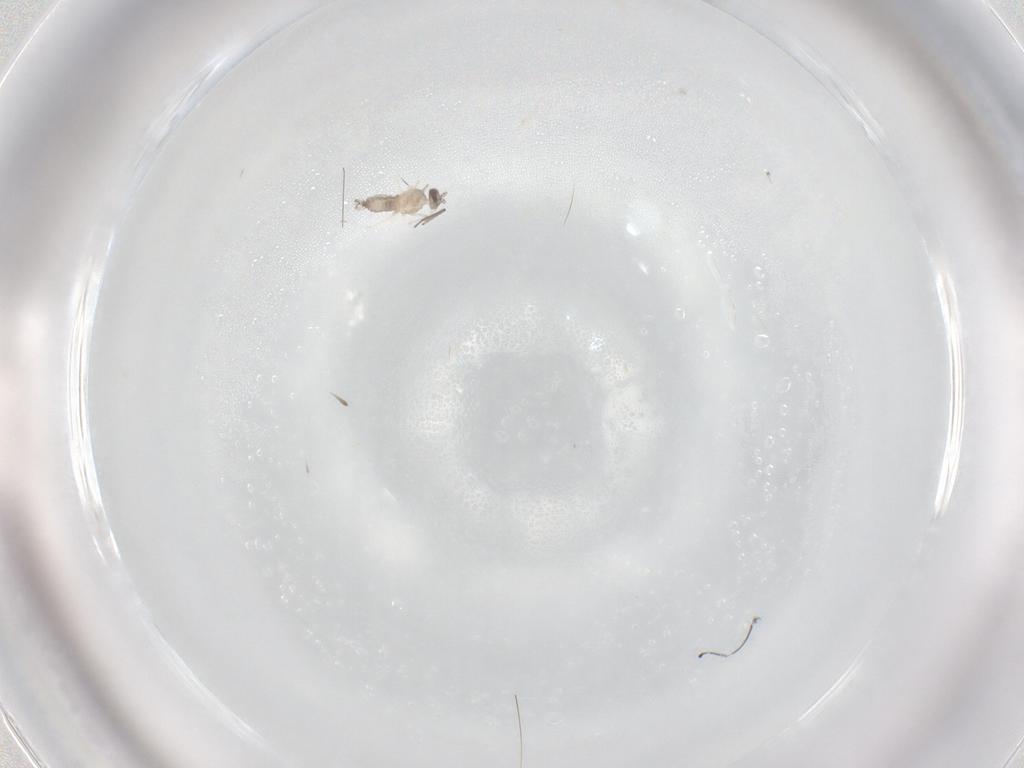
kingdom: Animalia
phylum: Arthropoda
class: Insecta
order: Diptera
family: Cecidomyiidae
